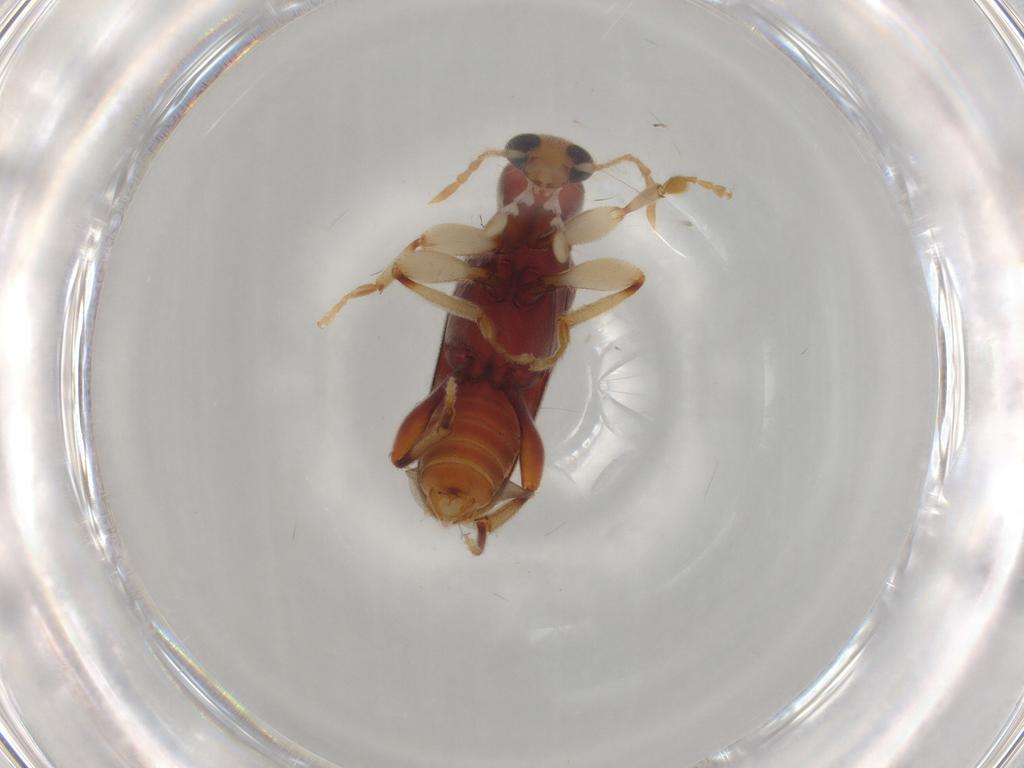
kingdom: Animalia
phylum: Arthropoda
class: Insecta
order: Coleoptera
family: Anthicidae
